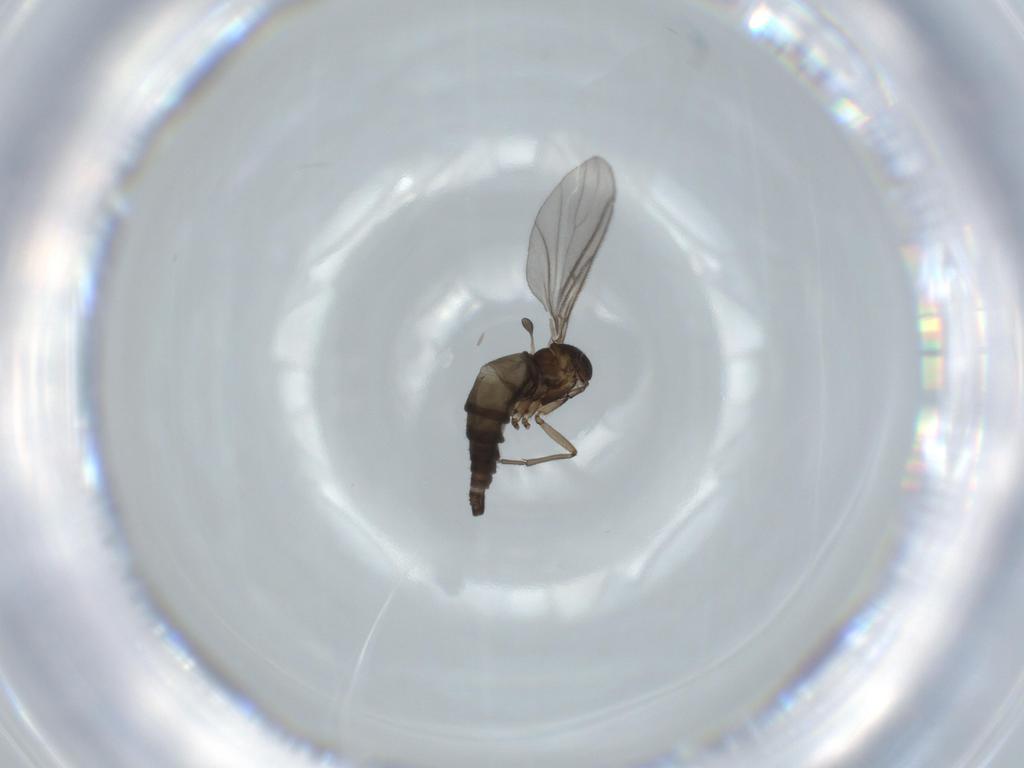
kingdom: Animalia
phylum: Arthropoda
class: Insecta
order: Diptera
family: Sciaridae
